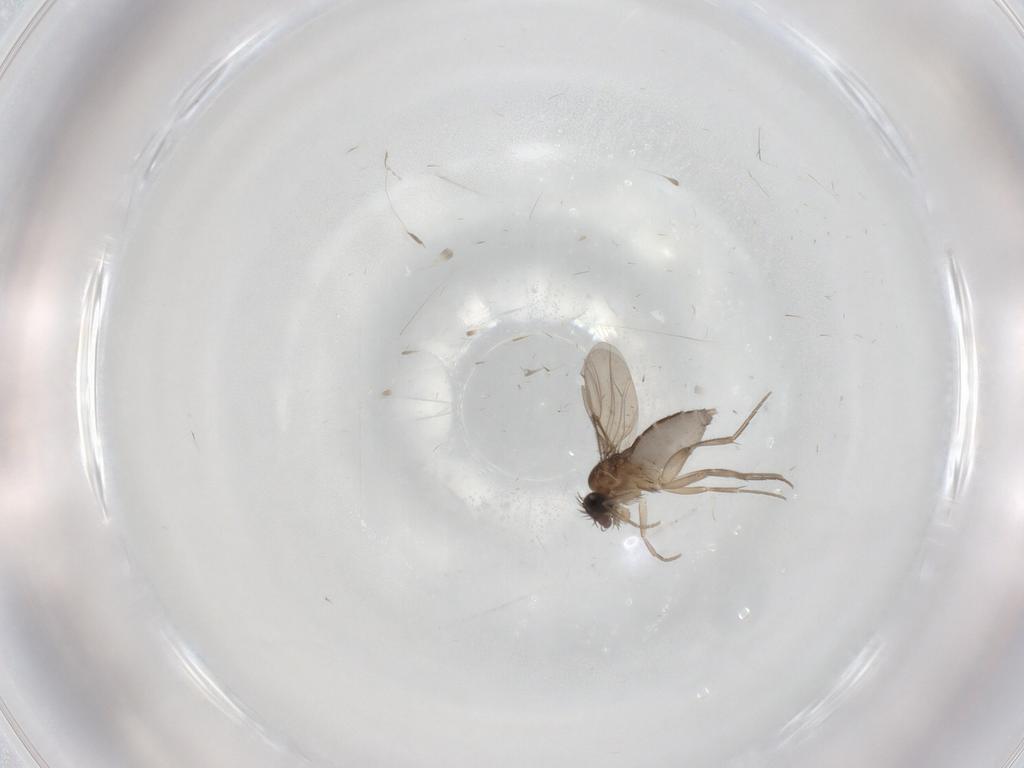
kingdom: Animalia
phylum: Arthropoda
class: Insecta
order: Diptera
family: Phoridae
